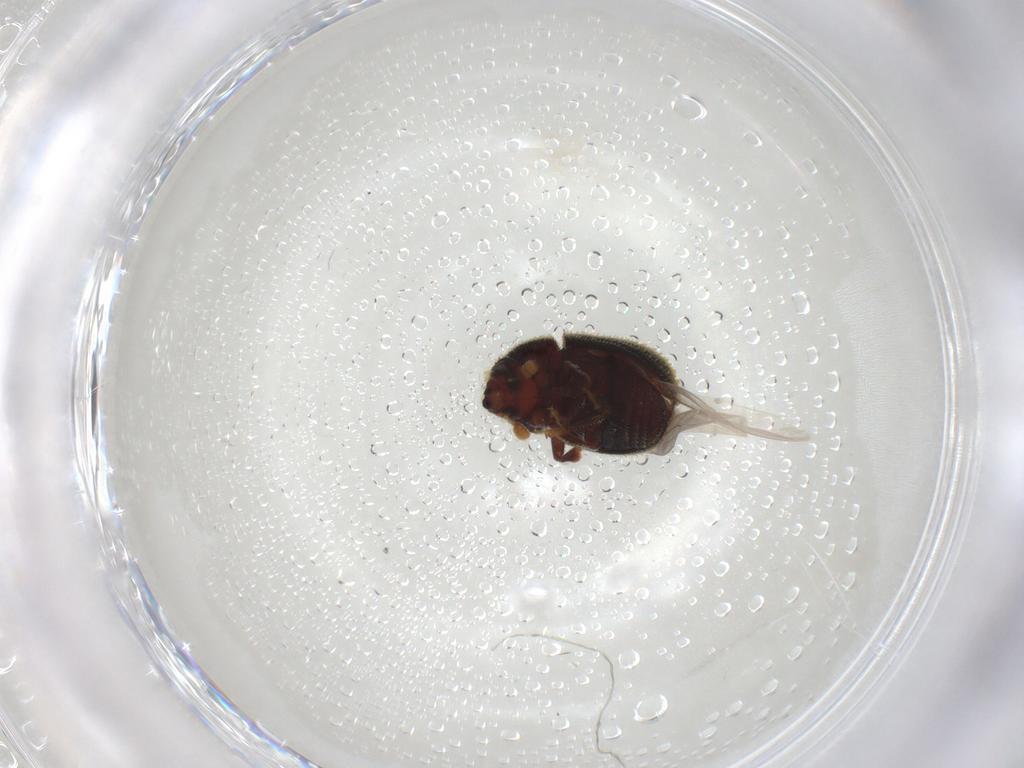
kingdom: Animalia
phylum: Arthropoda
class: Insecta
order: Coleoptera
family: Curculionidae
